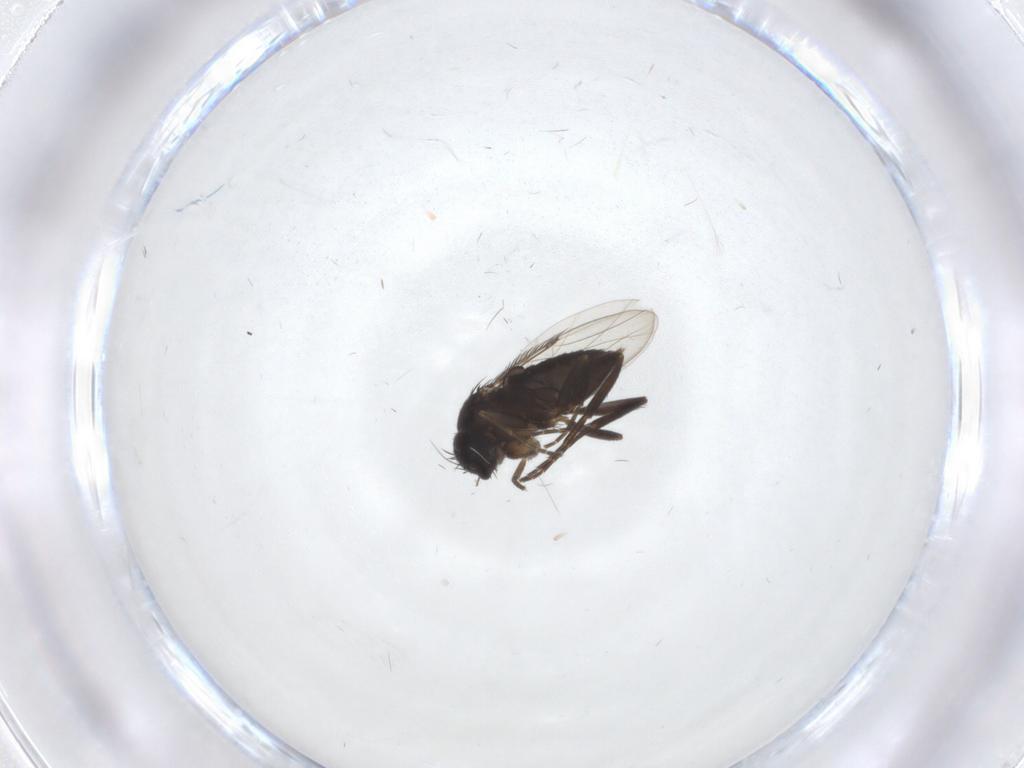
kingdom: Animalia
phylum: Arthropoda
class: Insecta
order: Diptera
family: Phoridae
